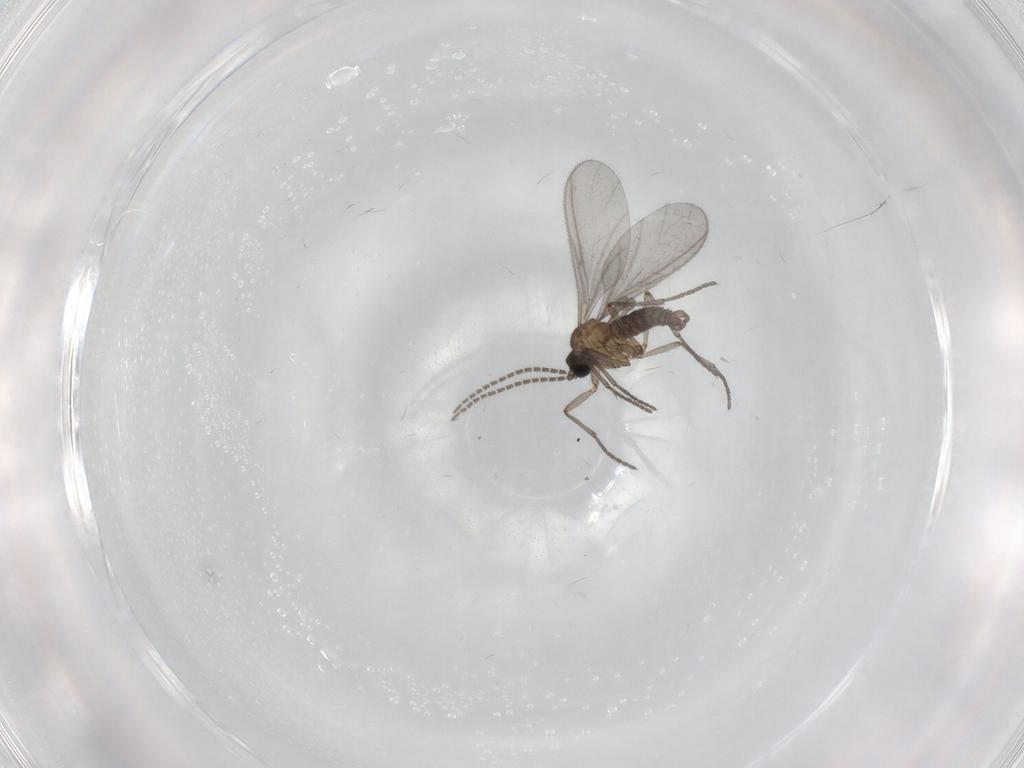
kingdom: Animalia
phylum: Arthropoda
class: Insecta
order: Diptera
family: Sciaridae
